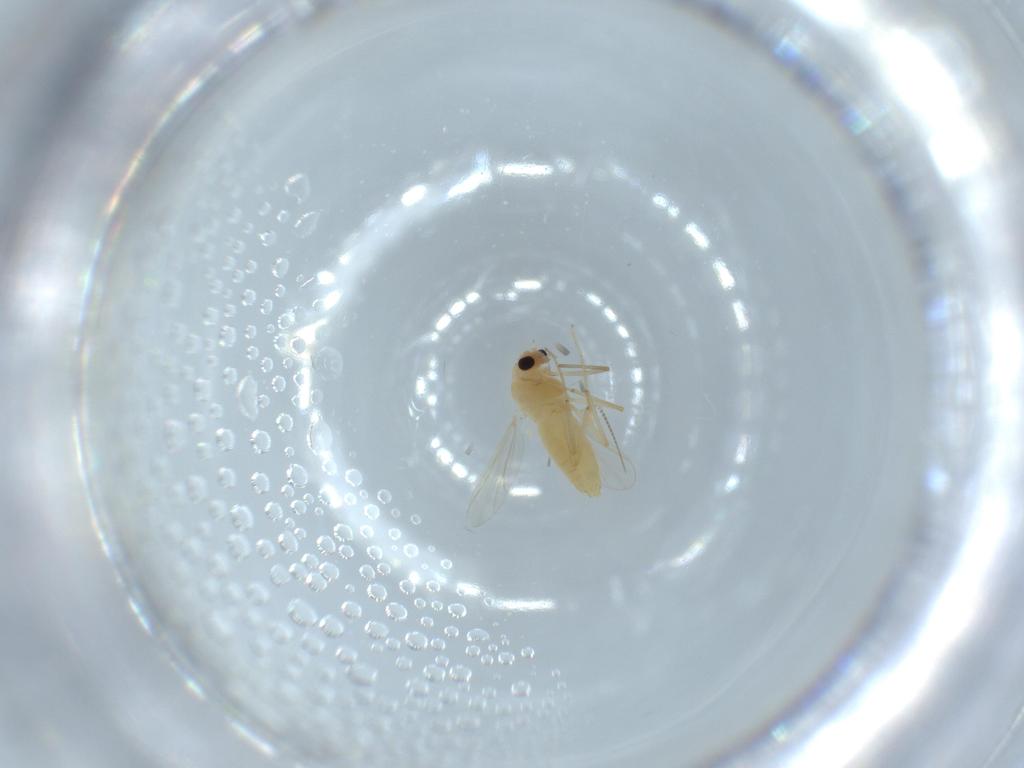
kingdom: Animalia
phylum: Arthropoda
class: Insecta
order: Diptera
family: Chironomidae
